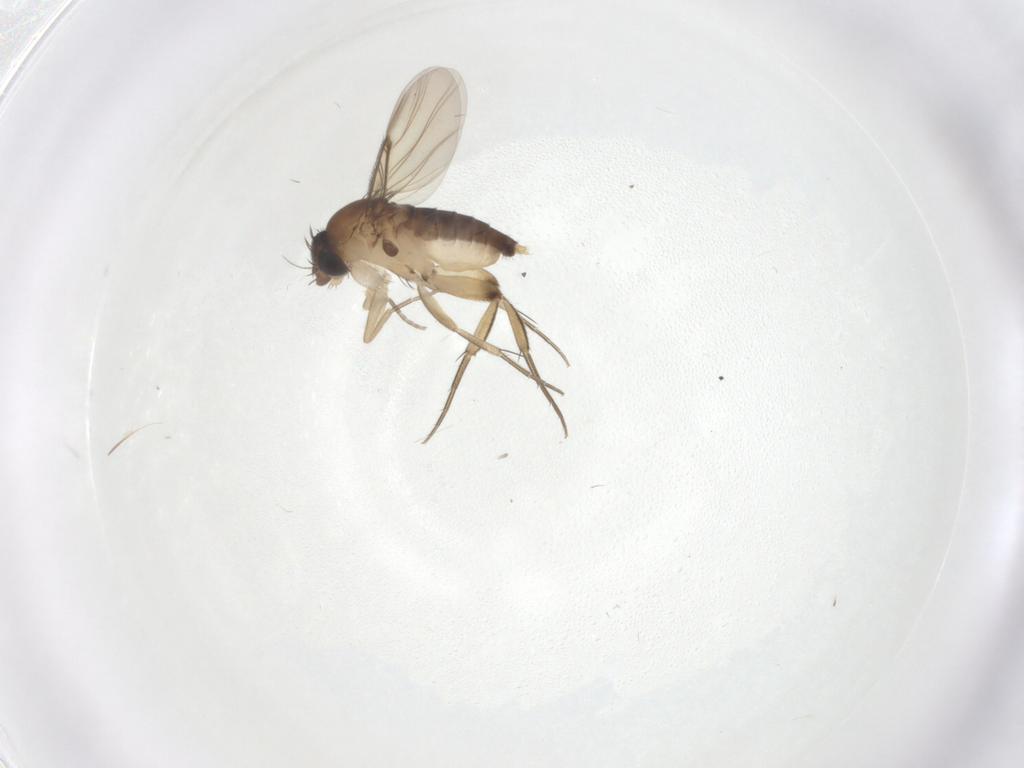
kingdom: Animalia
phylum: Arthropoda
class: Insecta
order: Diptera
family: Phoridae
